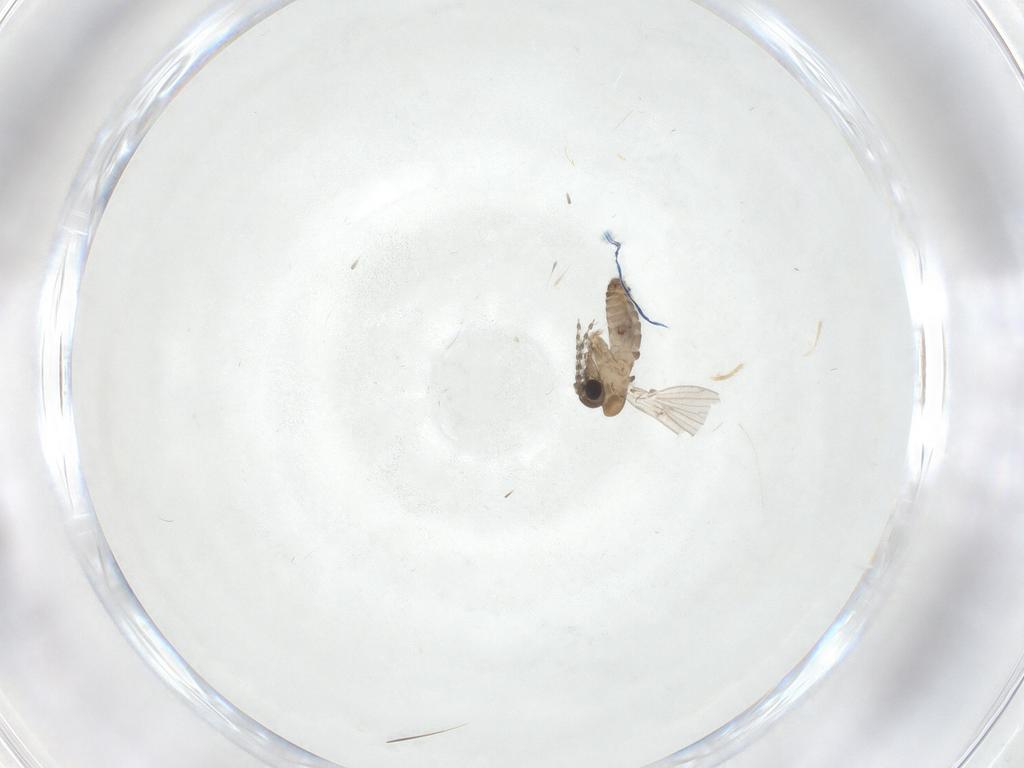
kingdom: Animalia
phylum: Arthropoda
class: Insecta
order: Diptera
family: Psychodidae
